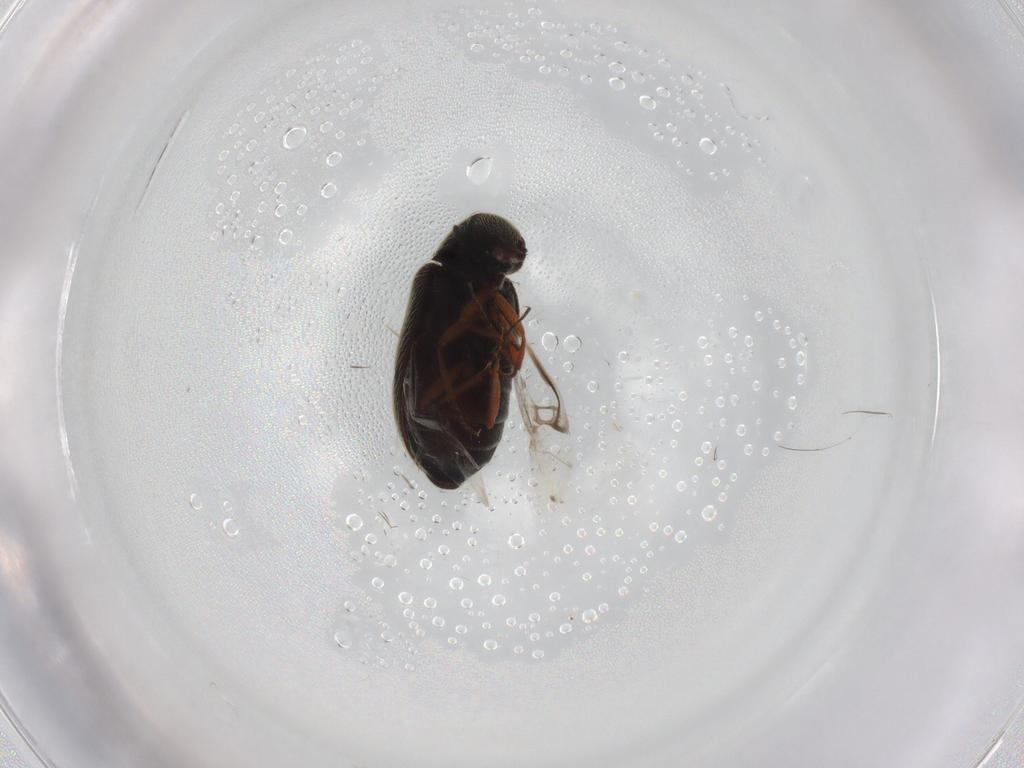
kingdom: Animalia
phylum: Arthropoda
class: Insecta
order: Coleoptera
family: Rhadalidae
